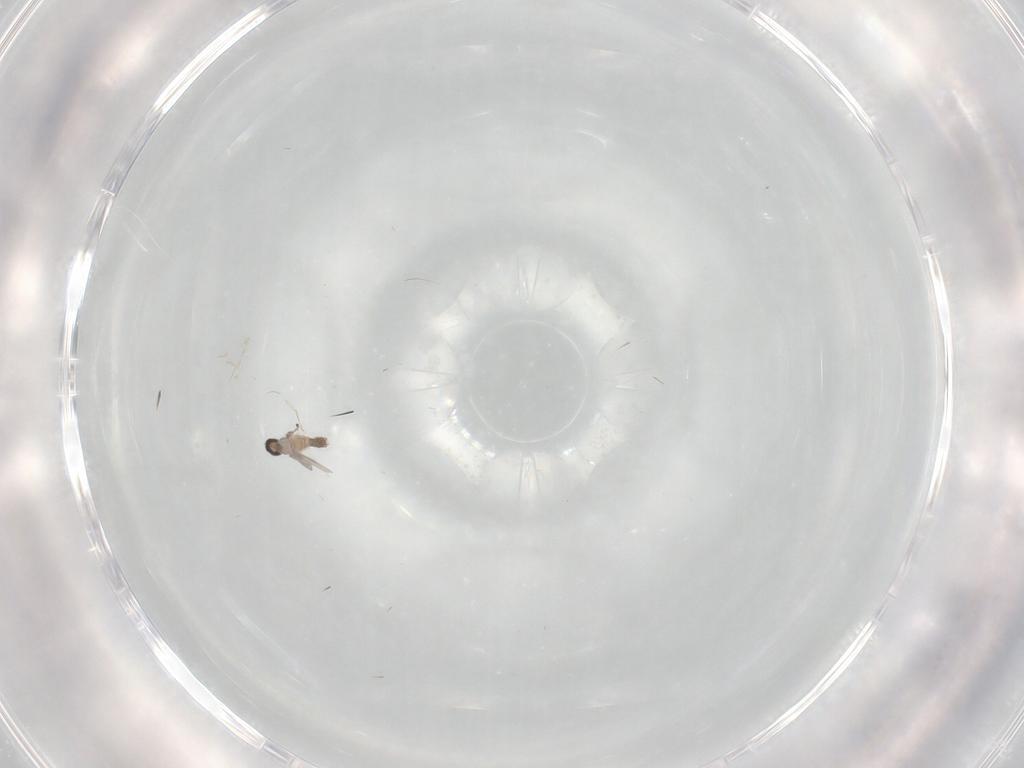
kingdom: Animalia
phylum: Arthropoda
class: Insecta
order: Diptera
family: Cecidomyiidae
